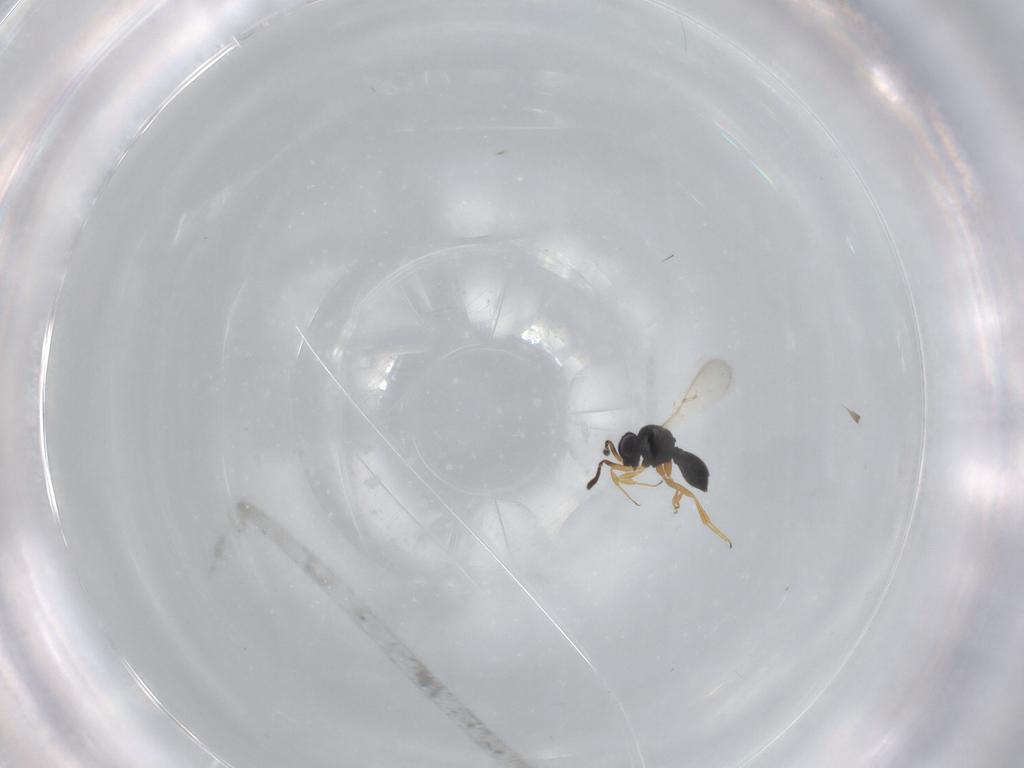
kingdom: Animalia
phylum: Arthropoda
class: Insecta
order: Hymenoptera
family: Scelionidae
